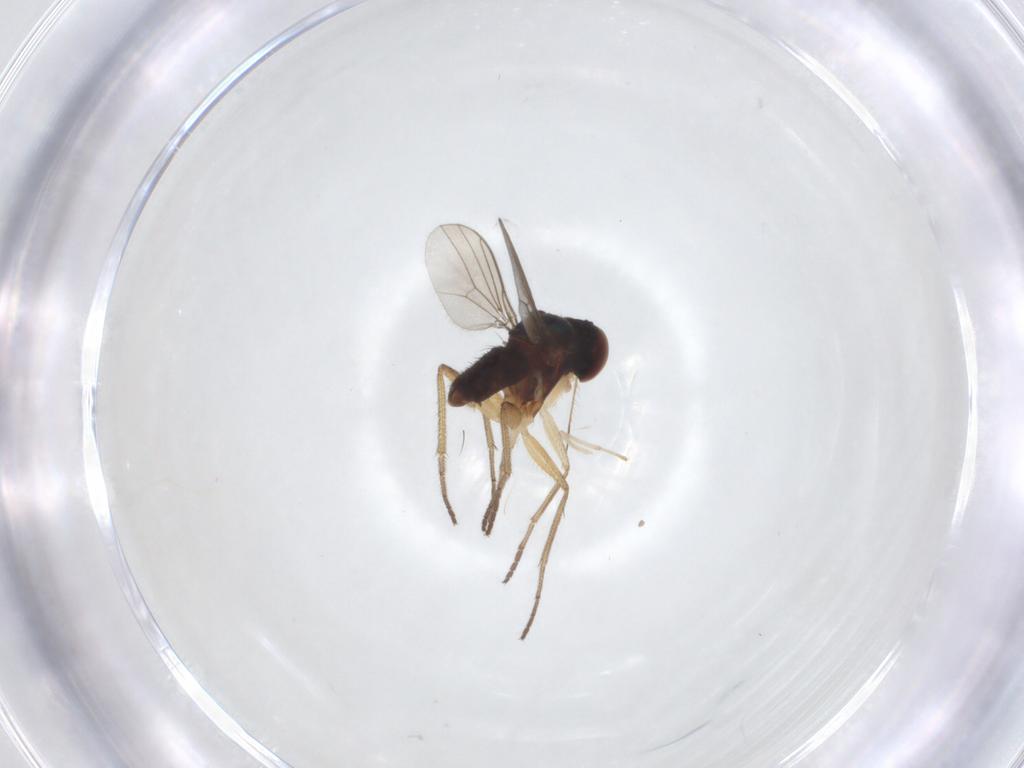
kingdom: Animalia
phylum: Arthropoda
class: Insecta
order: Diptera
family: Dolichopodidae
